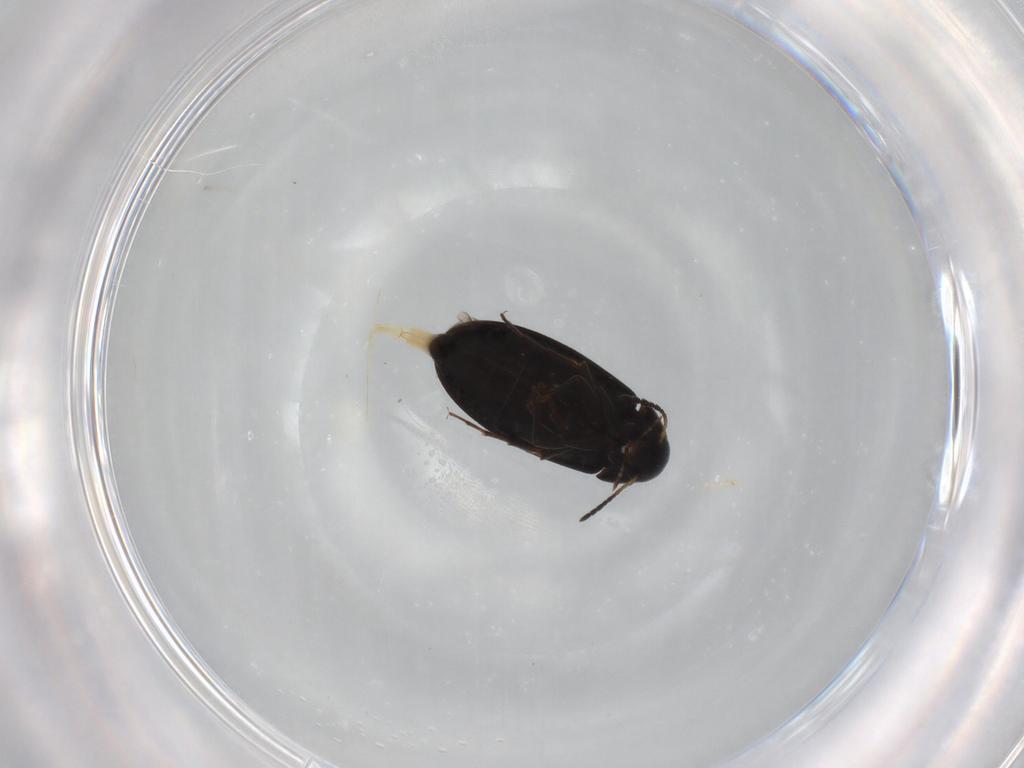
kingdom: Animalia
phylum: Arthropoda
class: Insecta
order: Coleoptera
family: Scraptiidae
